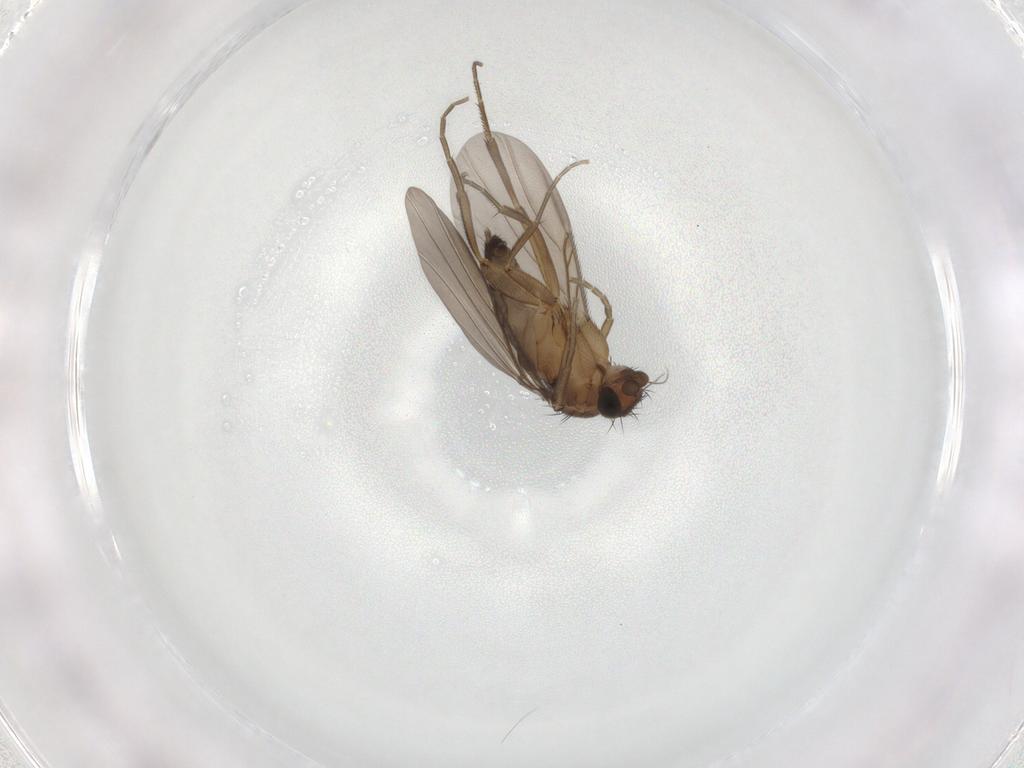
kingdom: Animalia
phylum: Arthropoda
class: Insecta
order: Diptera
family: Phoridae
